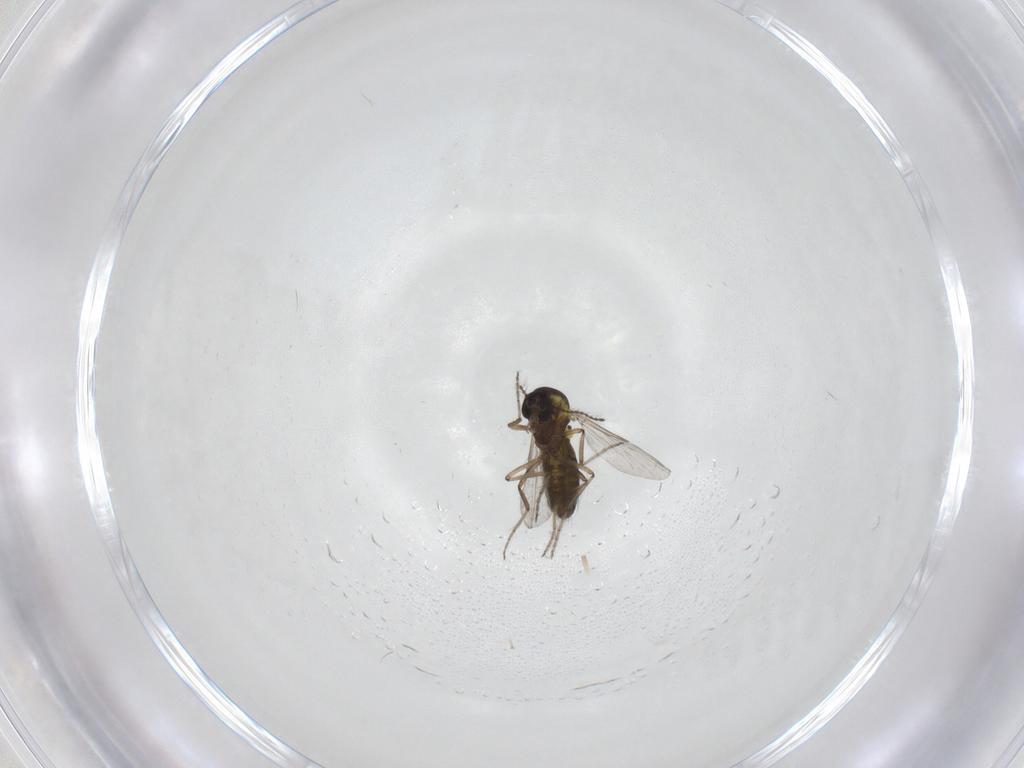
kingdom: Animalia
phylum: Arthropoda
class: Insecta
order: Diptera
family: Ceratopogonidae
